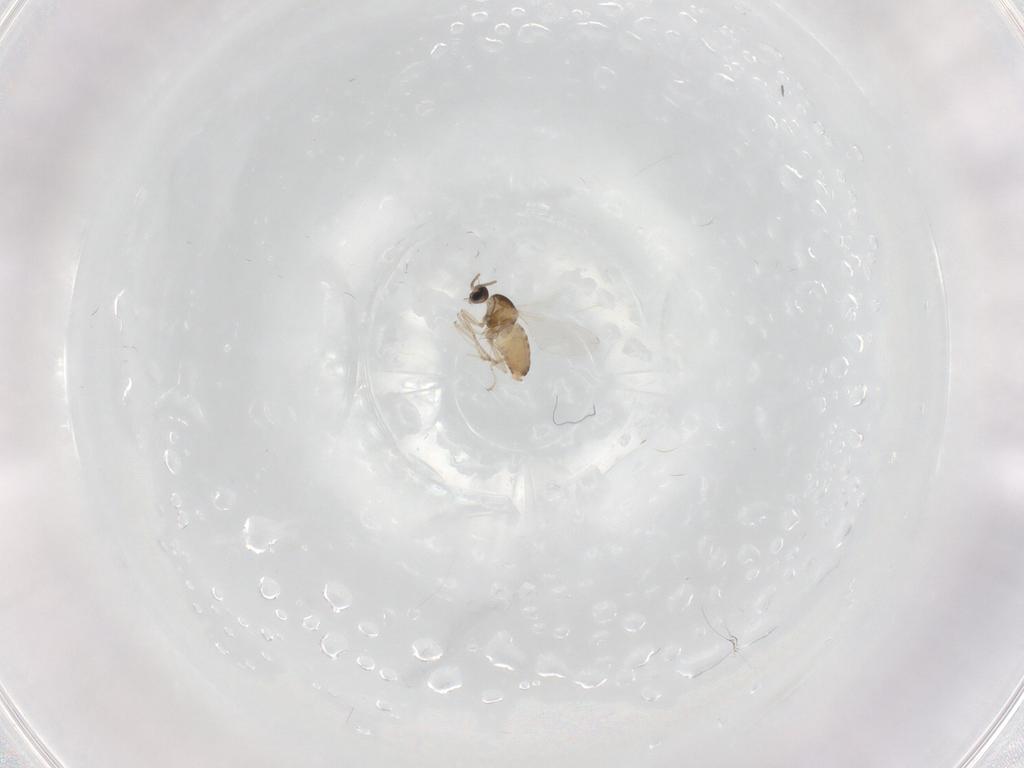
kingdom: Animalia
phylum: Arthropoda
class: Insecta
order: Diptera
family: Cecidomyiidae
